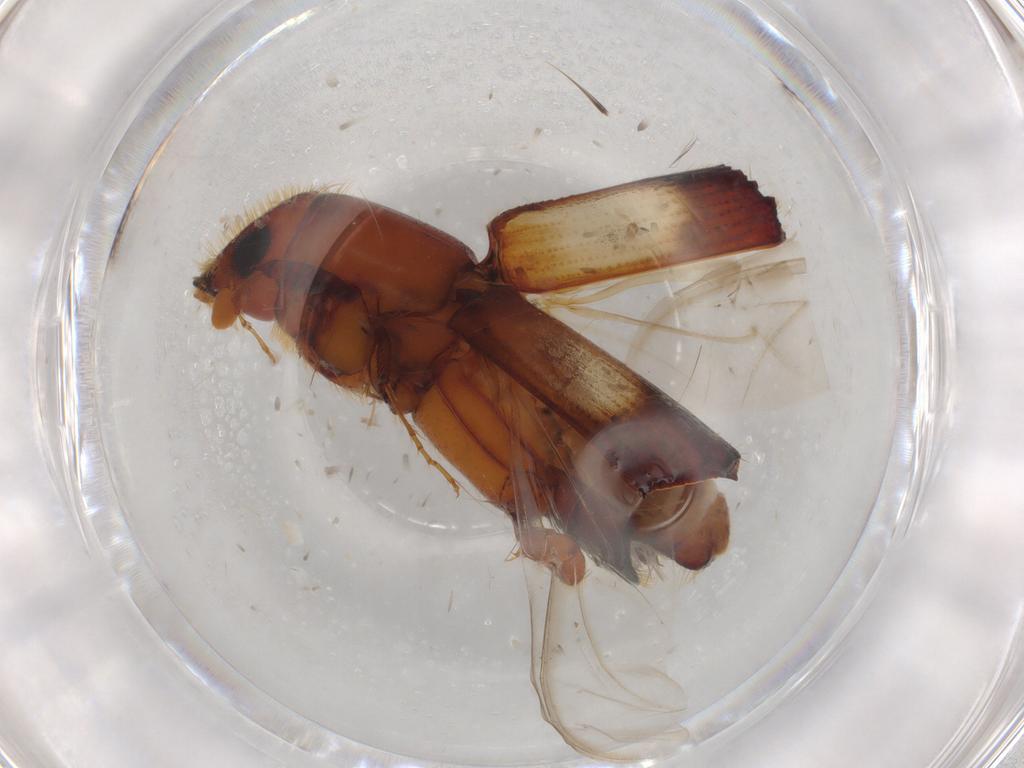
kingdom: Animalia
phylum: Arthropoda
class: Insecta
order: Coleoptera
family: Curculionidae
